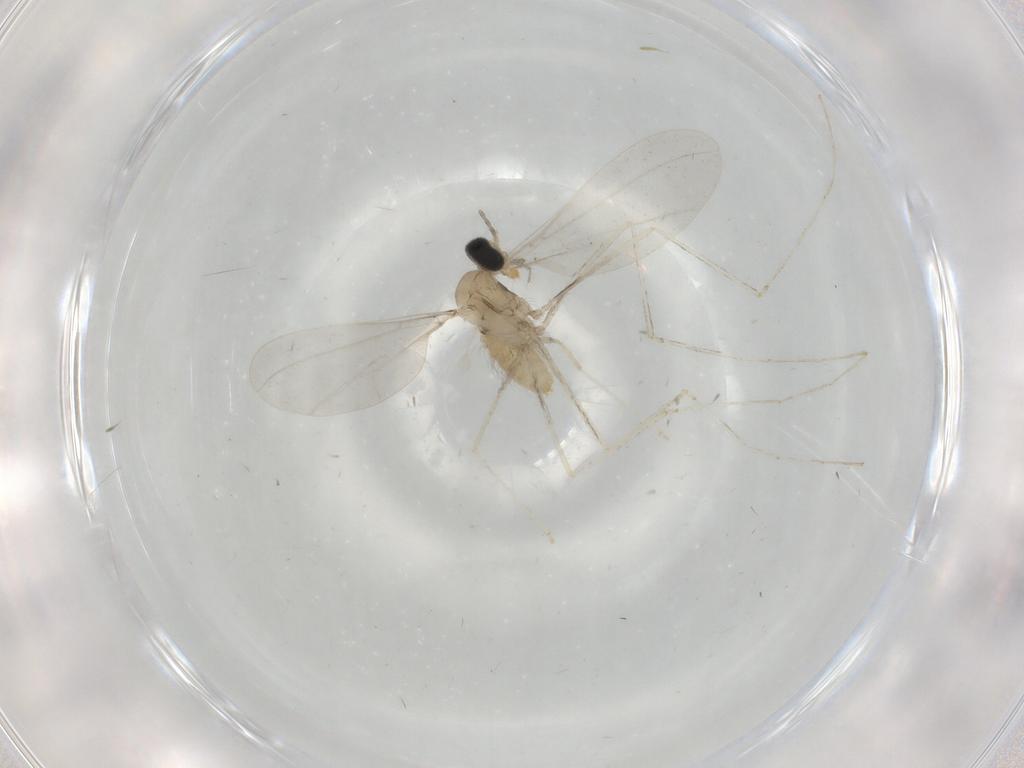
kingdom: Animalia
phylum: Arthropoda
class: Insecta
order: Diptera
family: Cecidomyiidae
